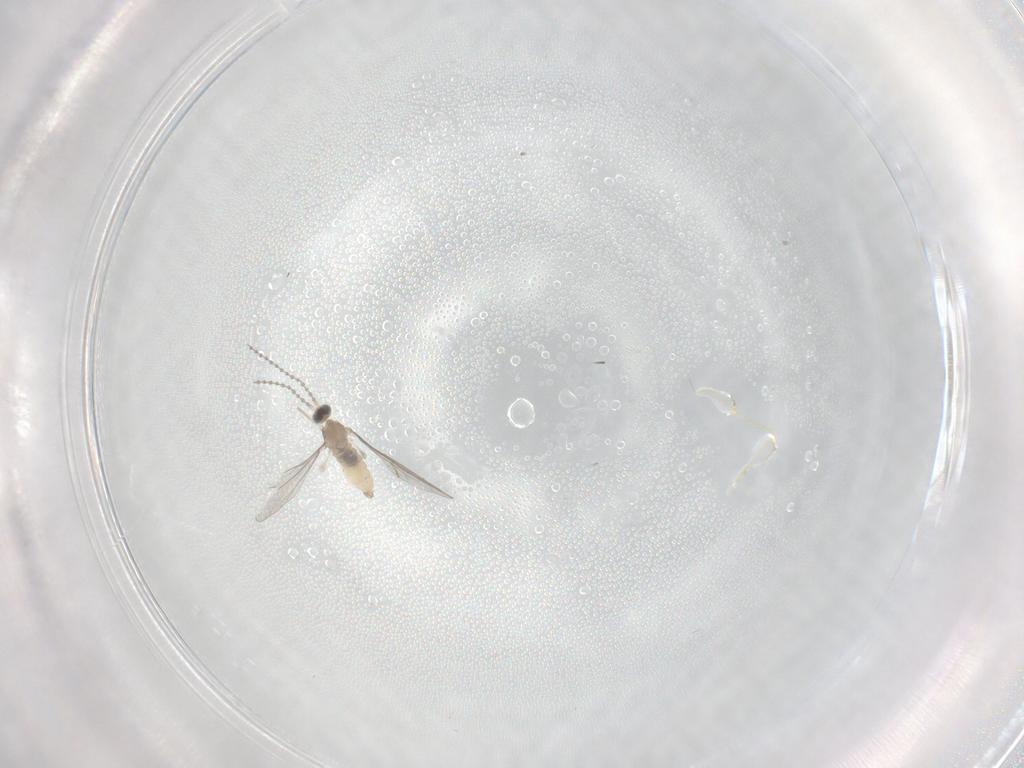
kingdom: Animalia
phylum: Arthropoda
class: Insecta
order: Diptera
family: Cecidomyiidae
